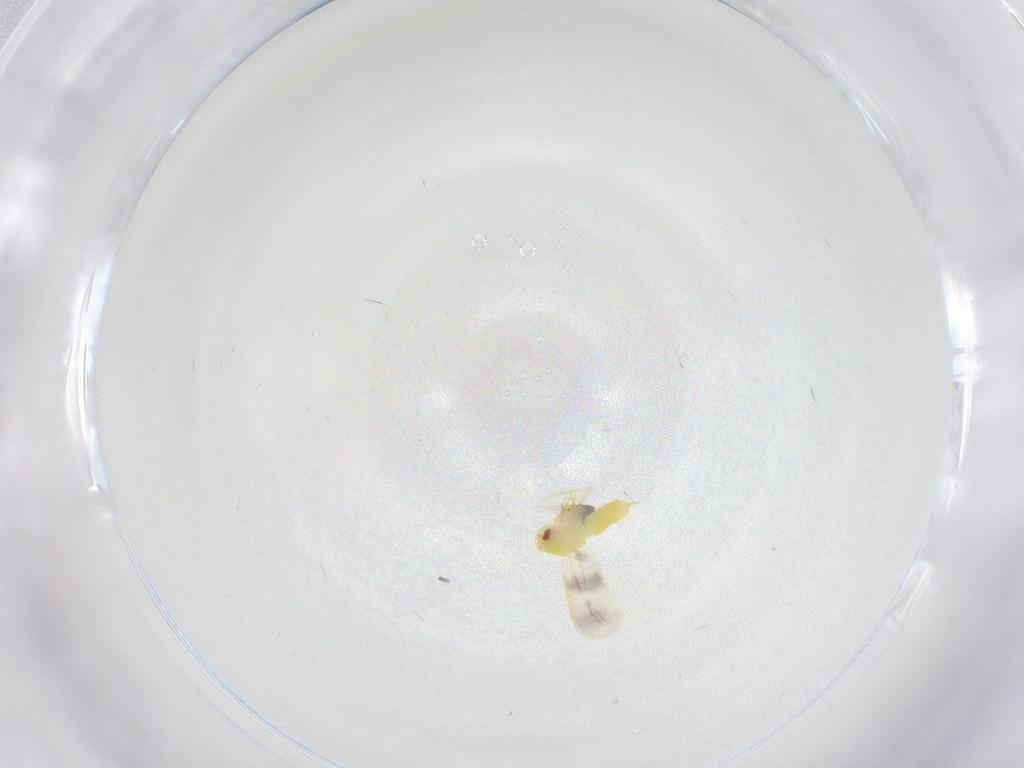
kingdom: Animalia
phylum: Arthropoda
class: Insecta
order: Hemiptera
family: Aleyrodidae
